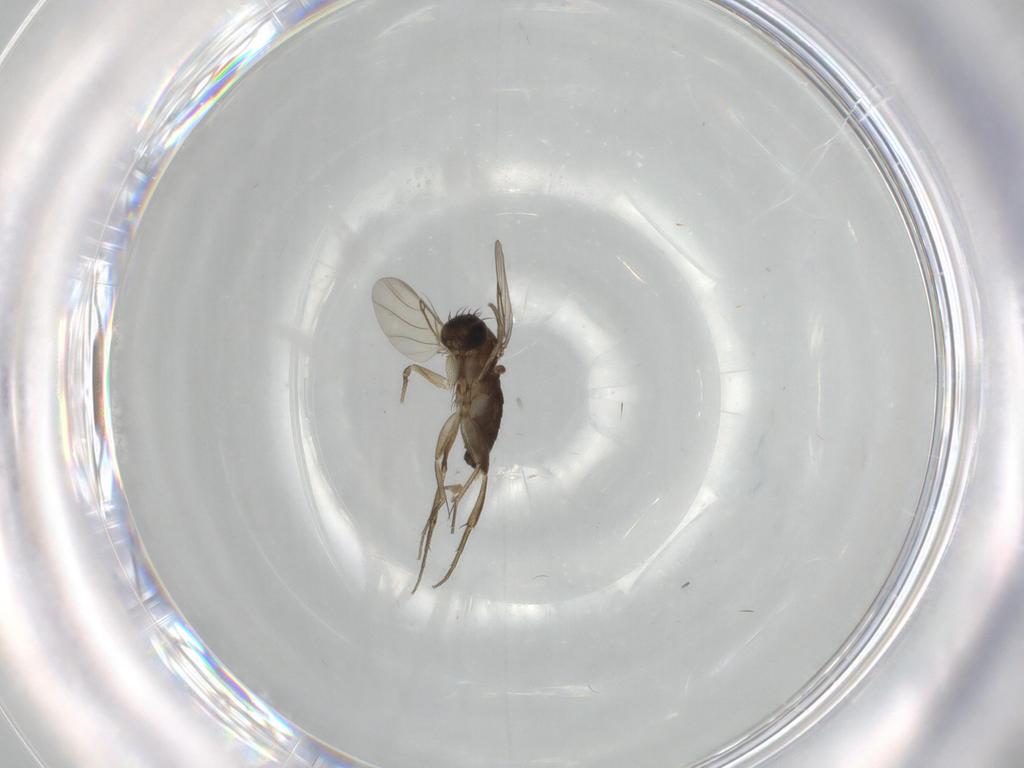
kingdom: Animalia
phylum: Arthropoda
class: Insecta
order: Diptera
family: Phoridae
